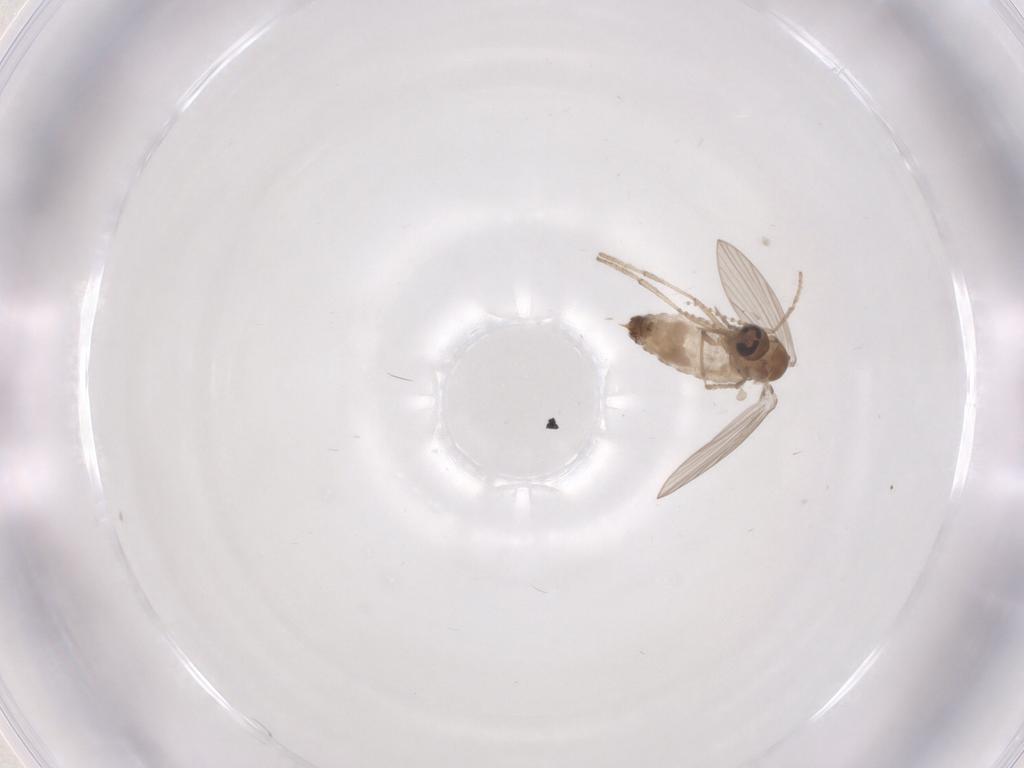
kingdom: Animalia
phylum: Arthropoda
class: Insecta
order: Diptera
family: Psychodidae
